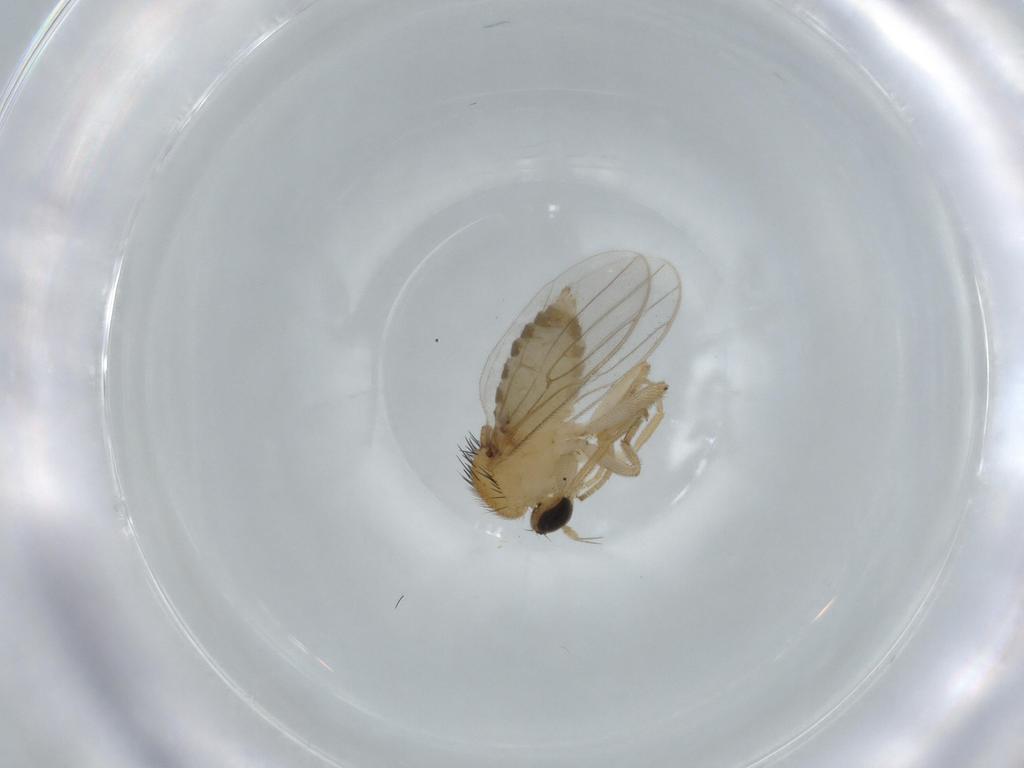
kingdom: Animalia
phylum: Arthropoda
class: Insecta
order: Diptera
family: Hybotidae
